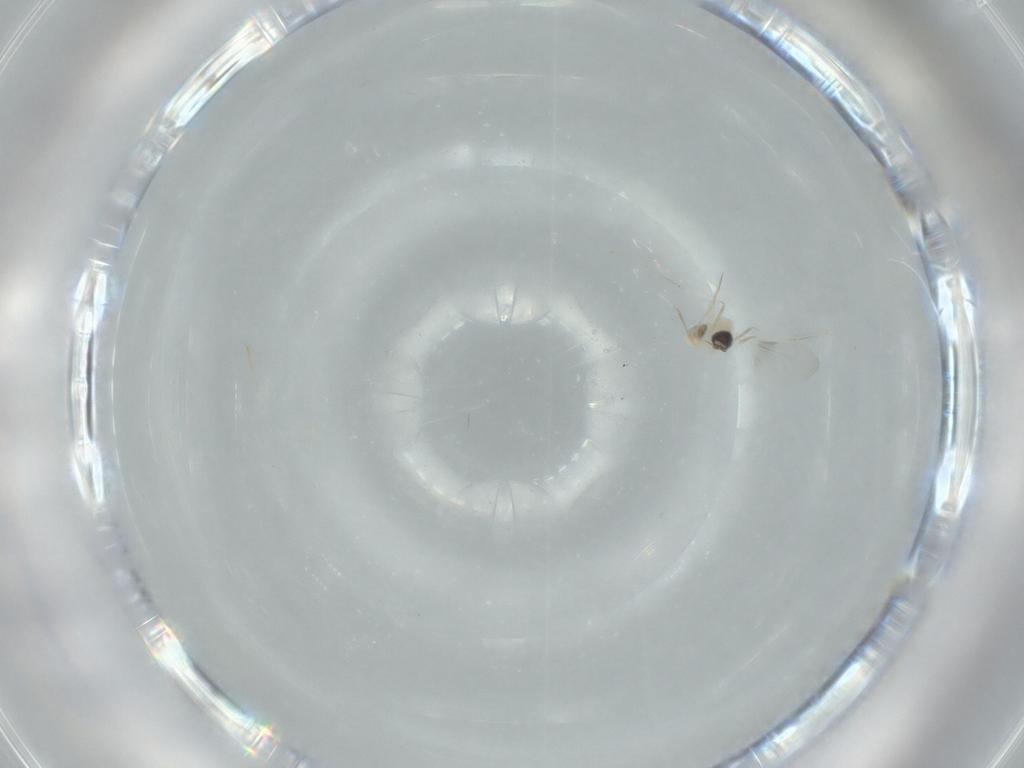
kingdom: Animalia
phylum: Arthropoda
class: Insecta
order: Diptera
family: Cecidomyiidae
